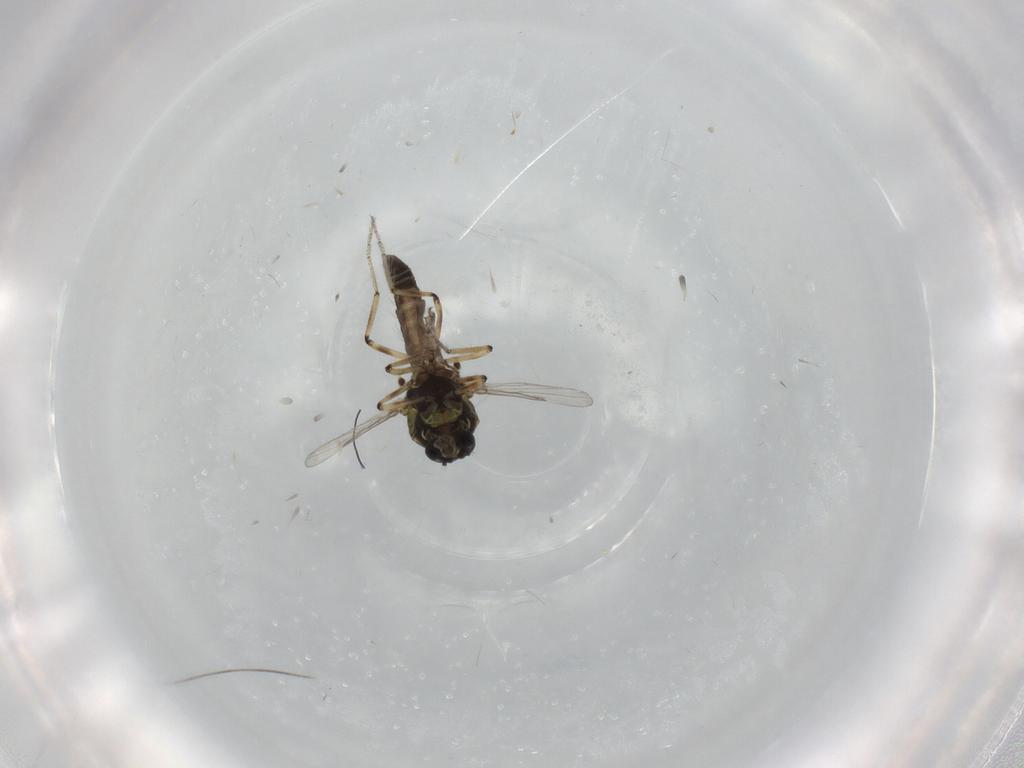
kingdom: Animalia
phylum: Arthropoda
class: Insecta
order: Diptera
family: Ceratopogonidae
